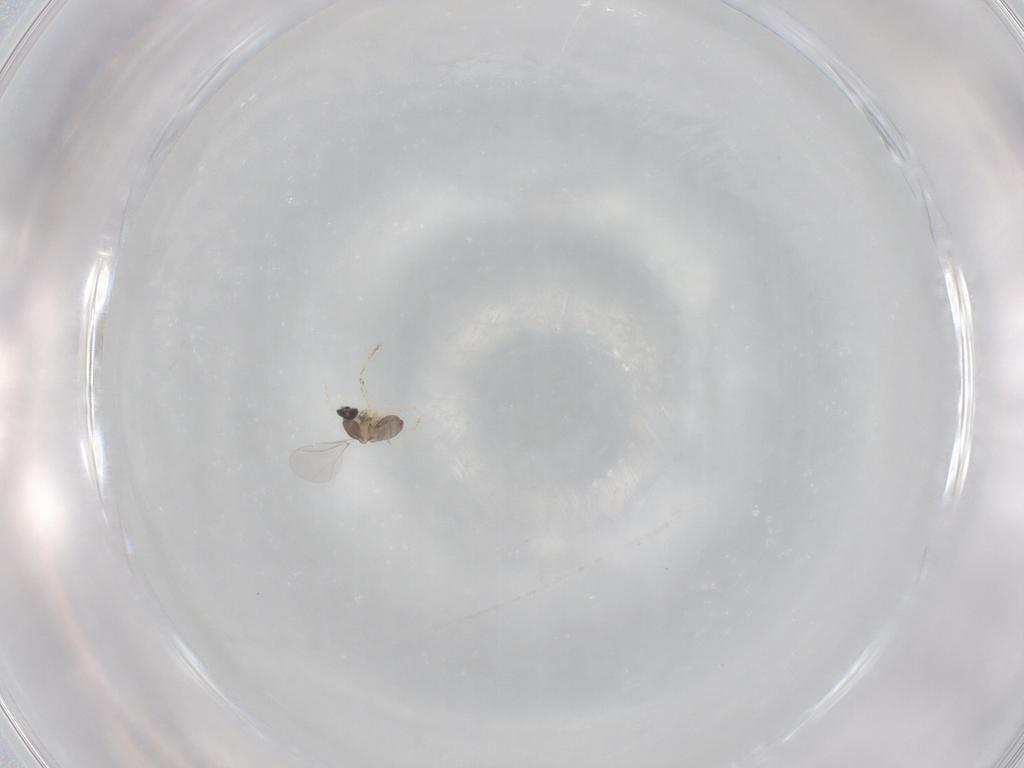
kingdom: Animalia
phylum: Arthropoda
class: Insecta
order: Diptera
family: Cecidomyiidae
